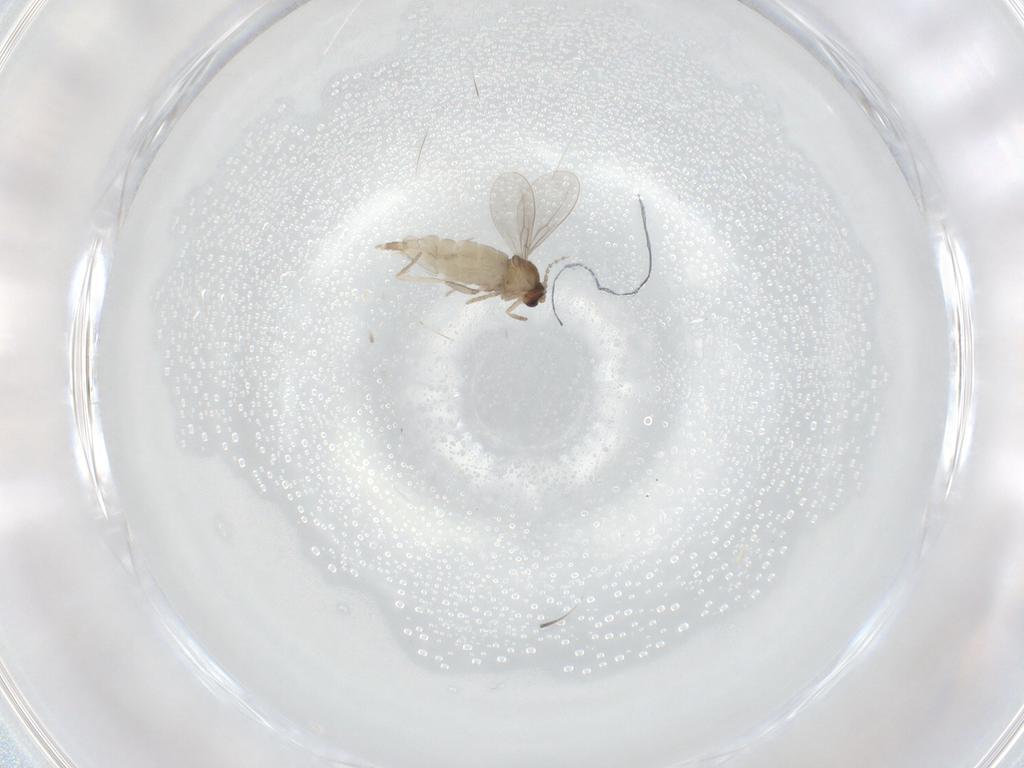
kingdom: Animalia
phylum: Arthropoda
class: Insecta
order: Diptera
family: Cecidomyiidae
